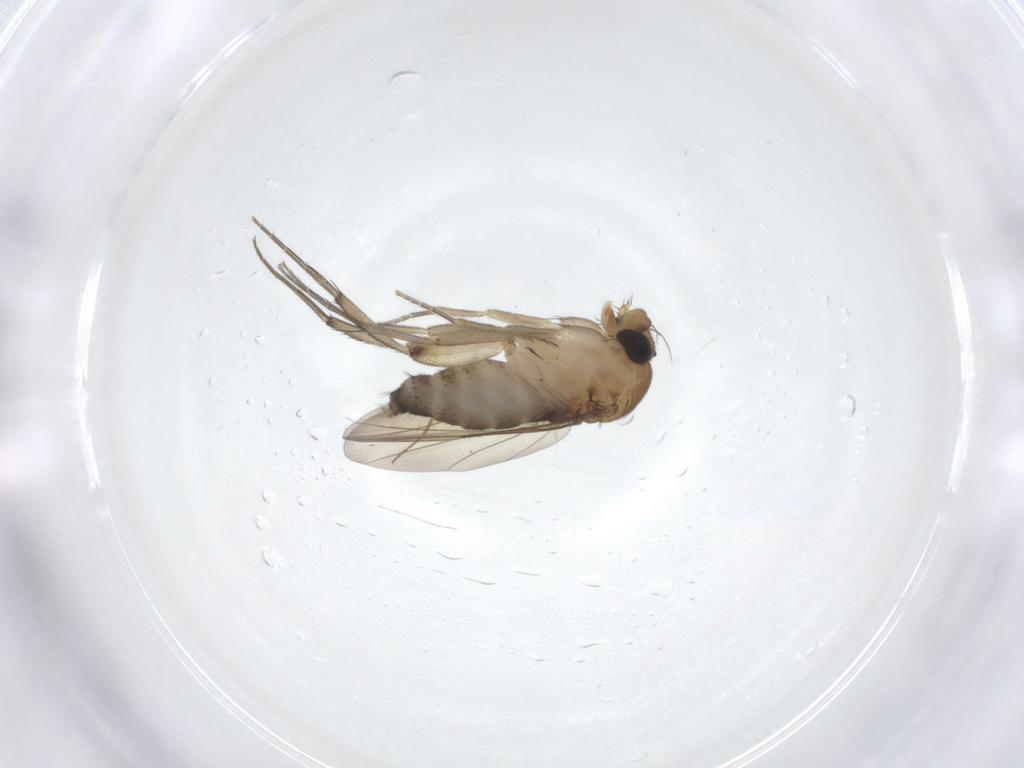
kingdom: Animalia
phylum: Arthropoda
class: Insecta
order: Diptera
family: Phoridae
